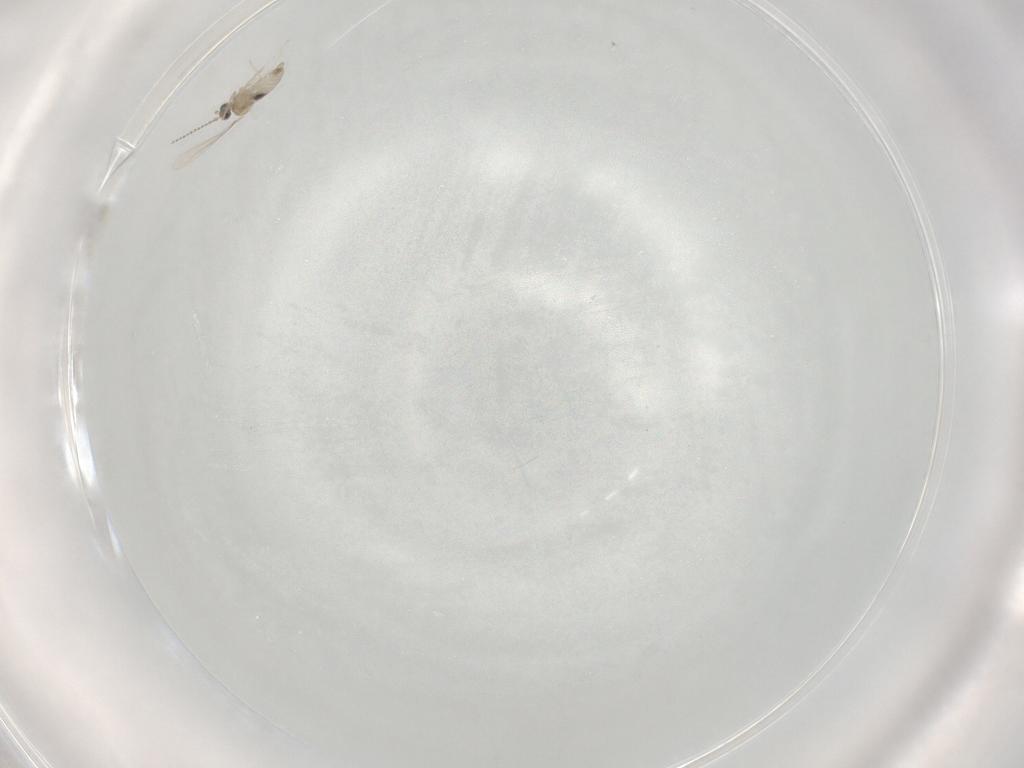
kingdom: Animalia
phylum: Arthropoda
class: Insecta
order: Diptera
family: Cecidomyiidae
